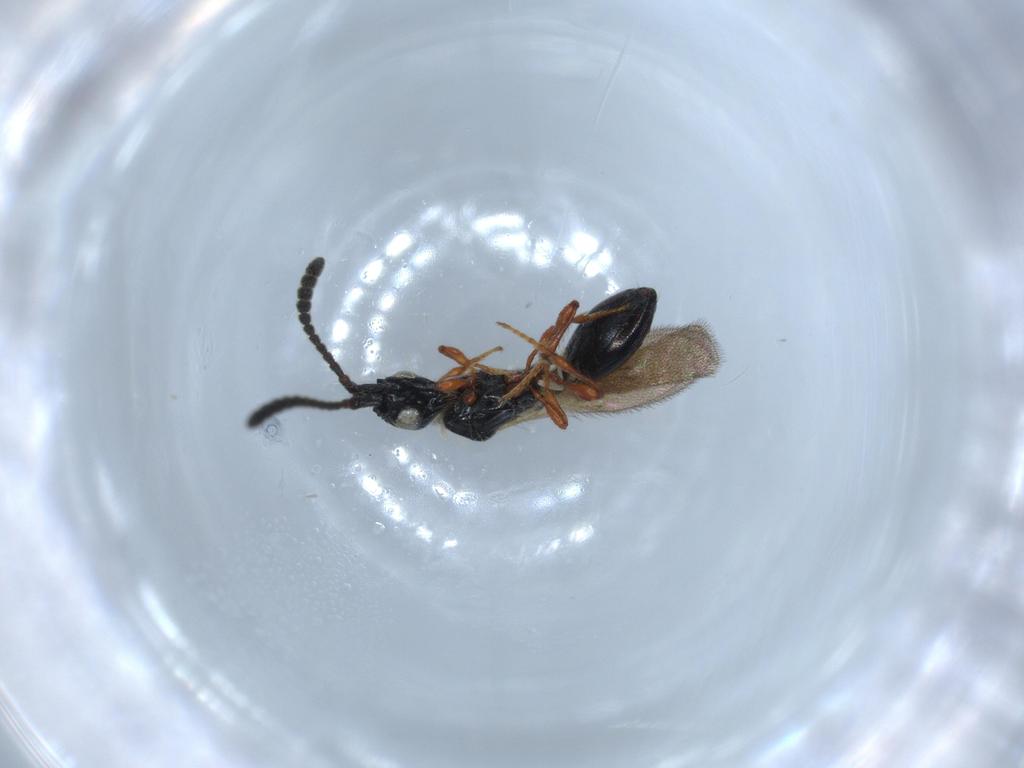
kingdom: Animalia
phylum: Arthropoda
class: Insecta
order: Hymenoptera
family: Diapriidae
